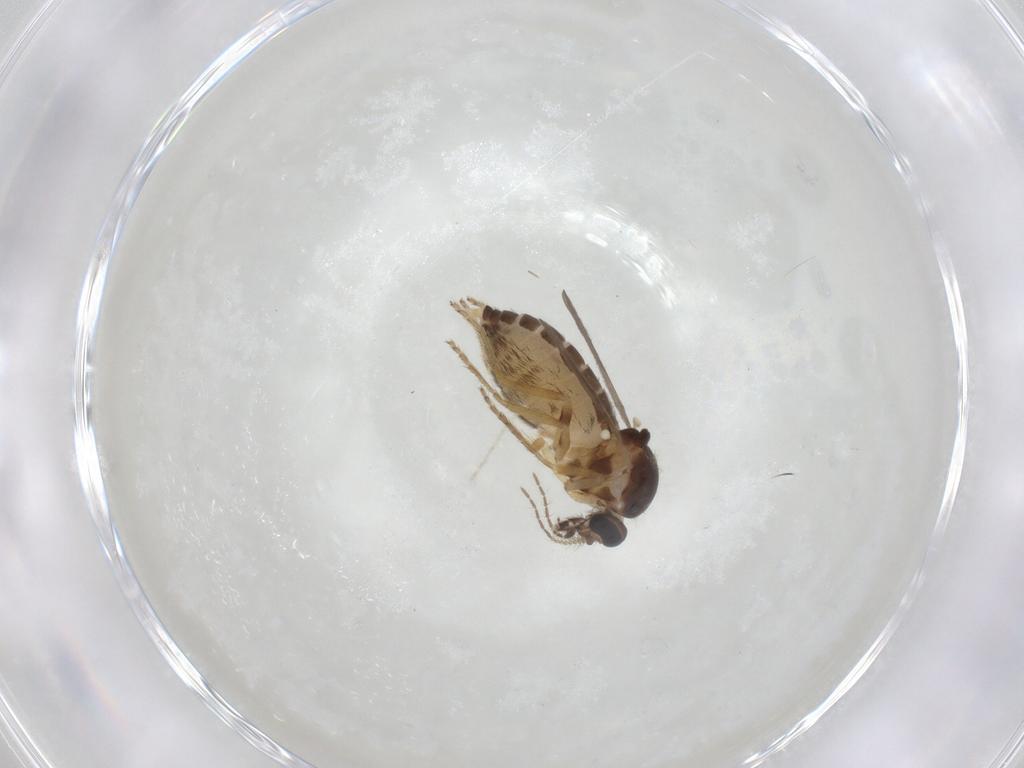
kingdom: Animalia
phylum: Arthropoda
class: Insecta
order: Diptera
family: Ceratopogonidae
